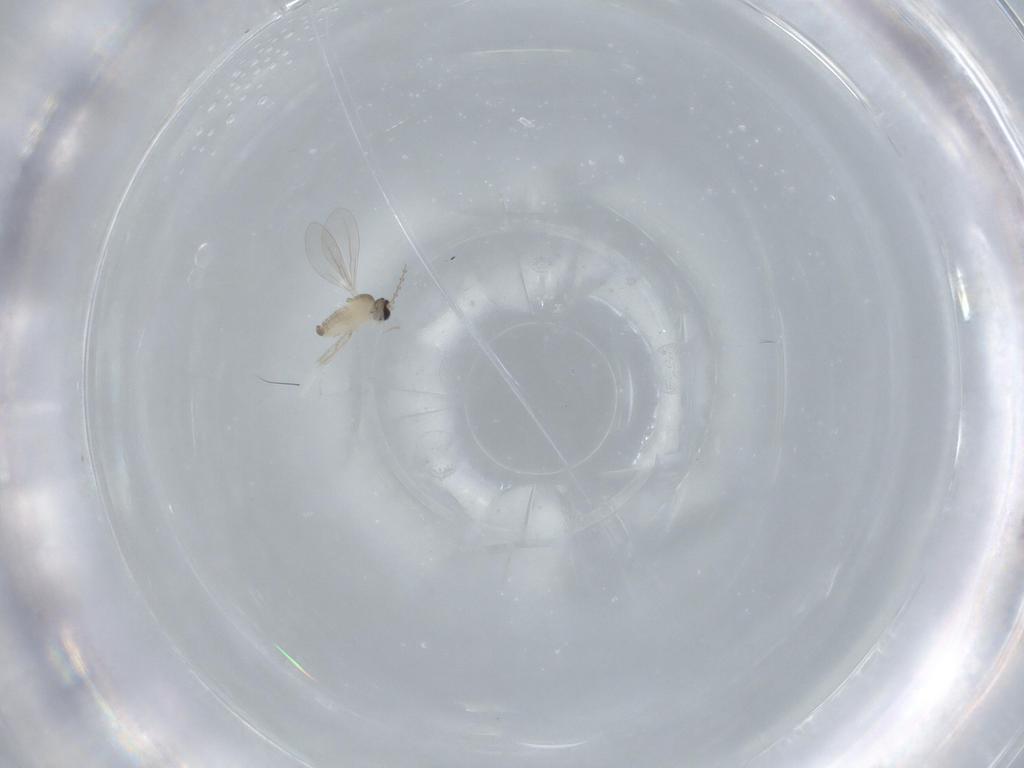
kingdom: Animalia
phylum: Arthropoda
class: Insecta
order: Diptera
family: Cecidomyiidae
